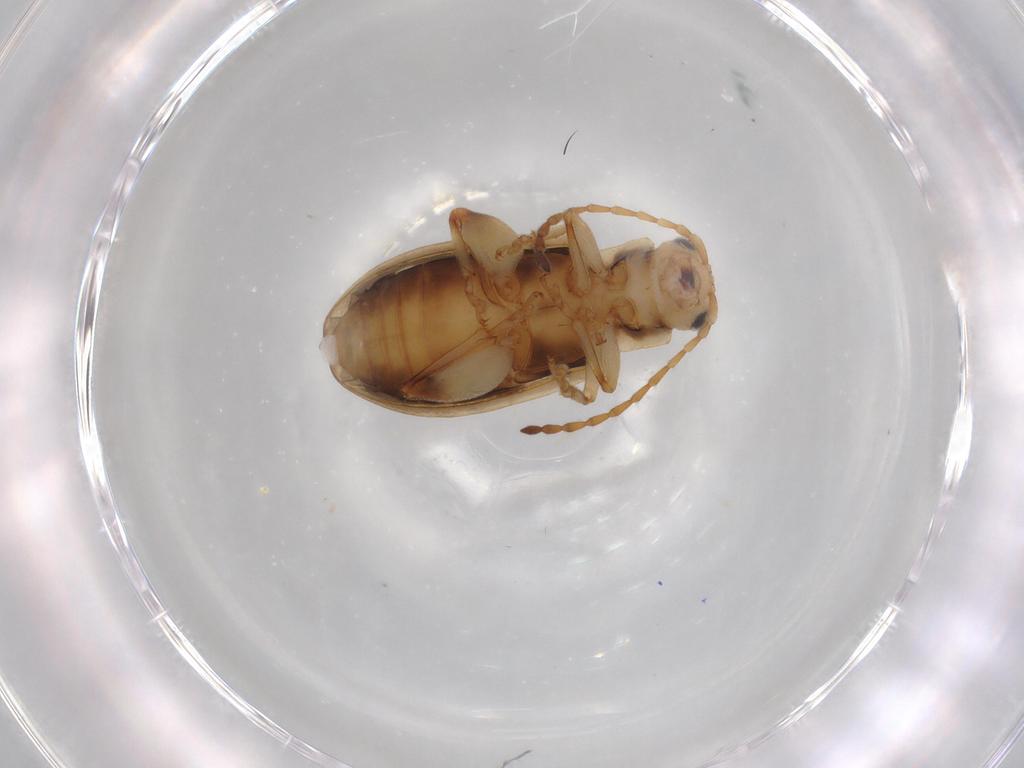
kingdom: Animalia
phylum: Arthropoda
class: Insecta
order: Coleoptera
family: Chrysomelidae
